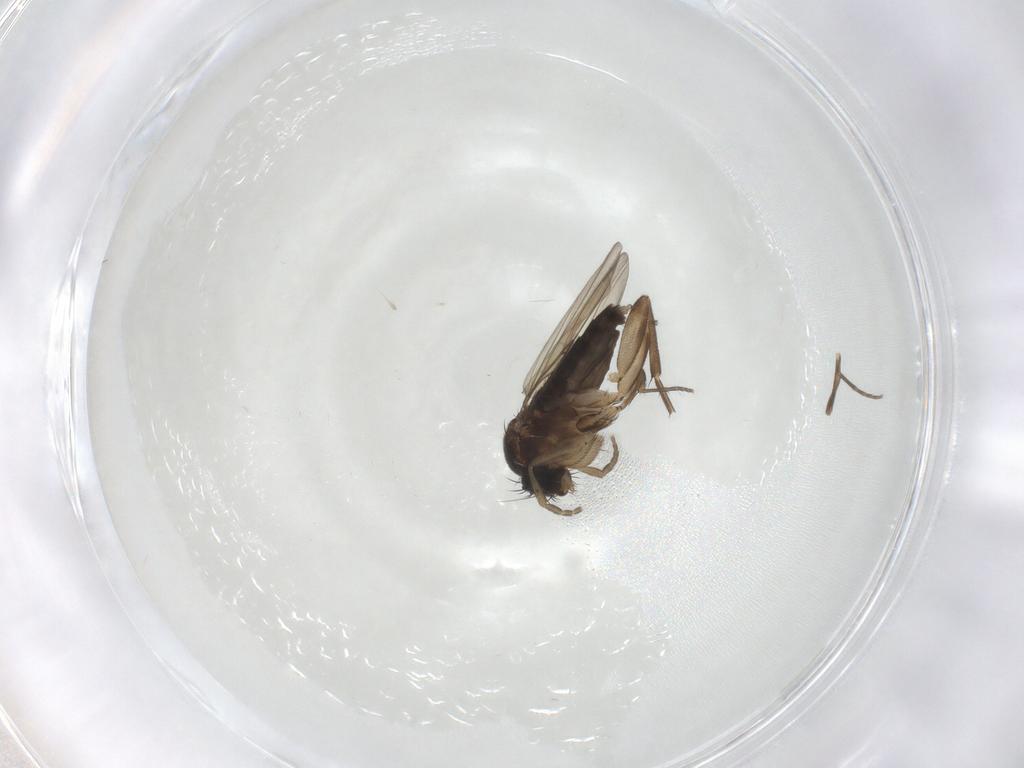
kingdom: Animalia
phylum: Arthropoda
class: Insecta
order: Diptera
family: Phoridae
